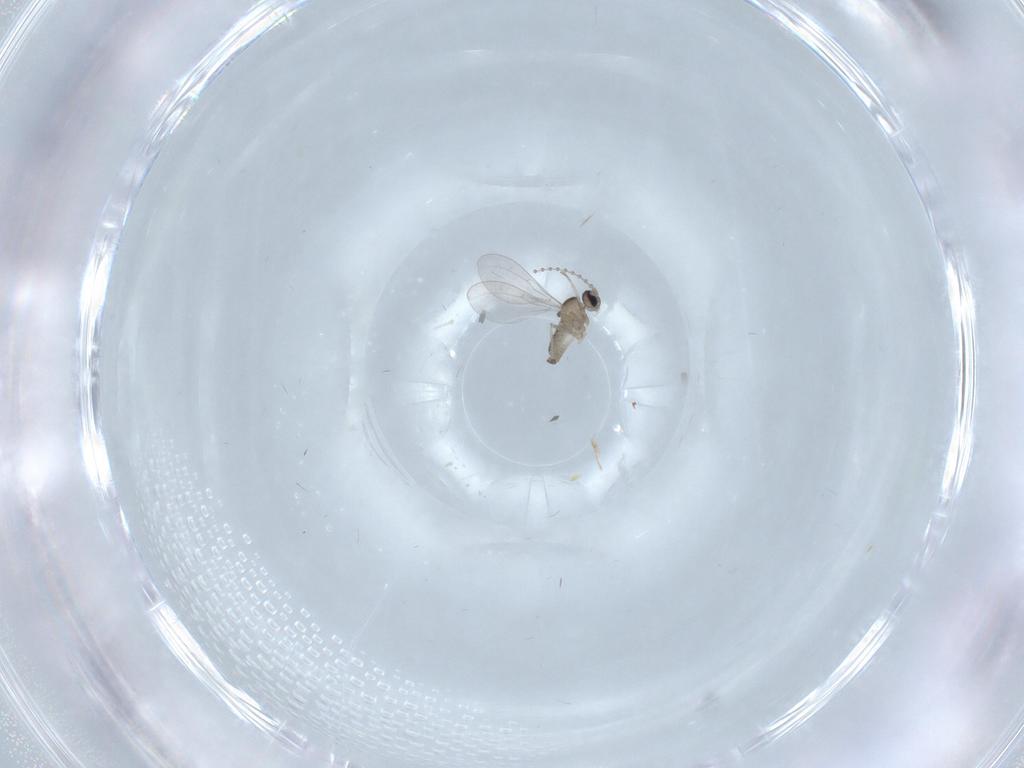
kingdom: Animalia
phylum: Arthropoda
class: Insecta
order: Diptera
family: Cecidomyiidae
